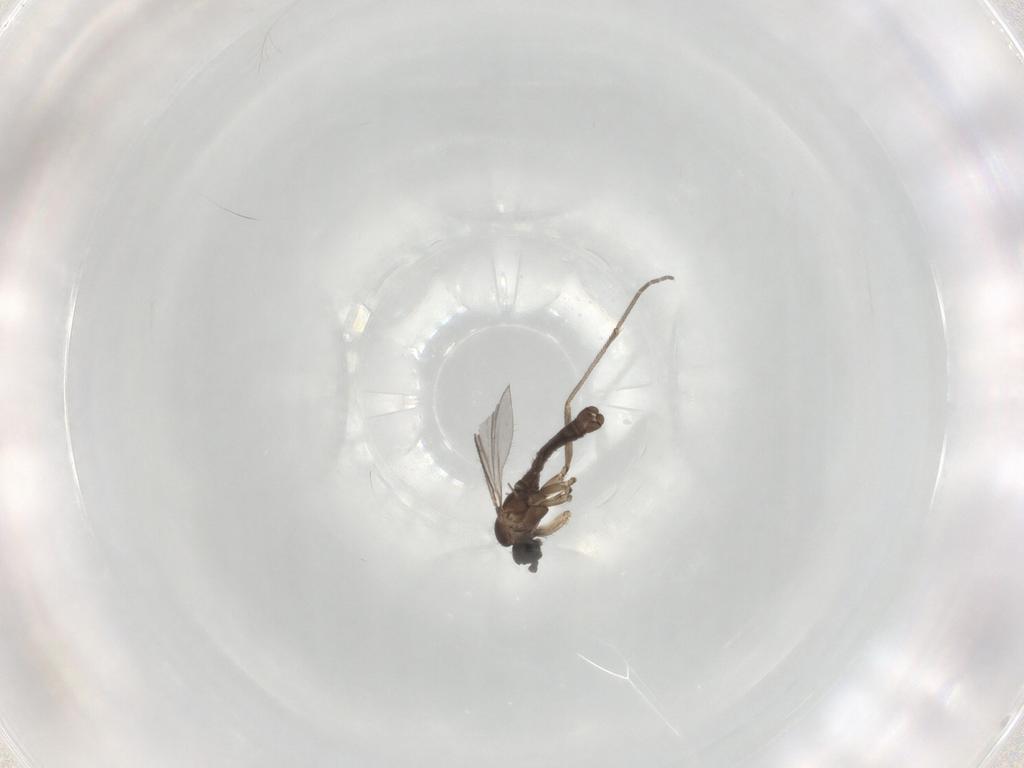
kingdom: Animalia
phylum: Arthropoda
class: Insecta
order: Diptera
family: Sciaridae
